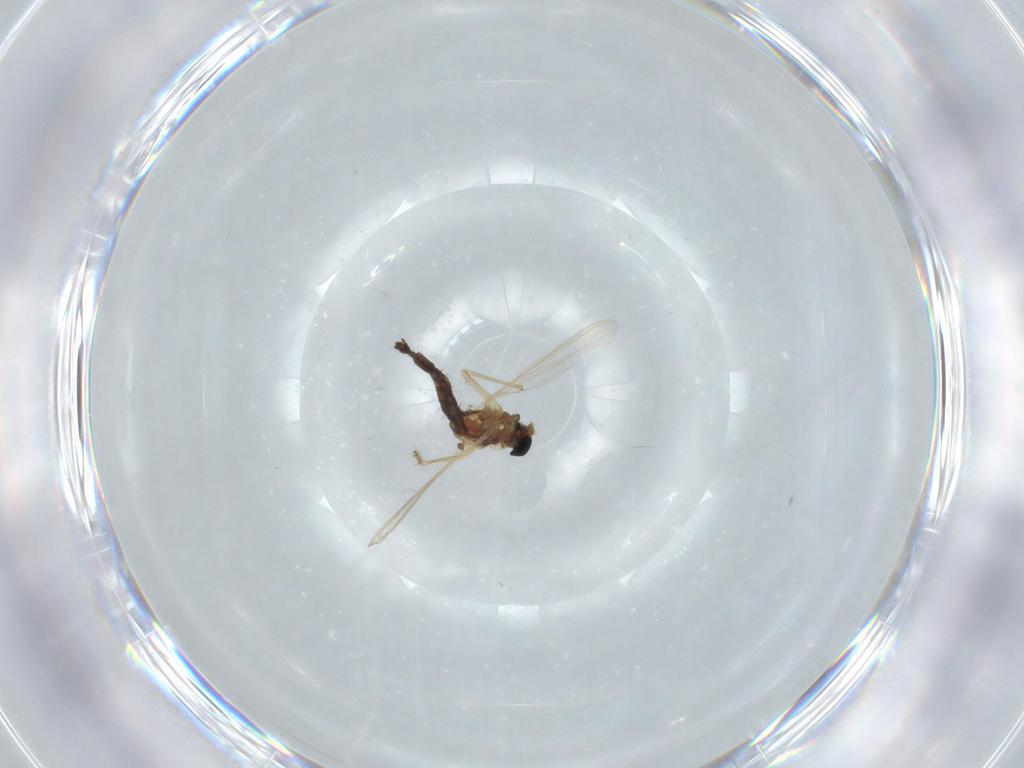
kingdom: Animalia
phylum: Arthropoda
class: Insecta
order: Diptera
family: Chironomidae
